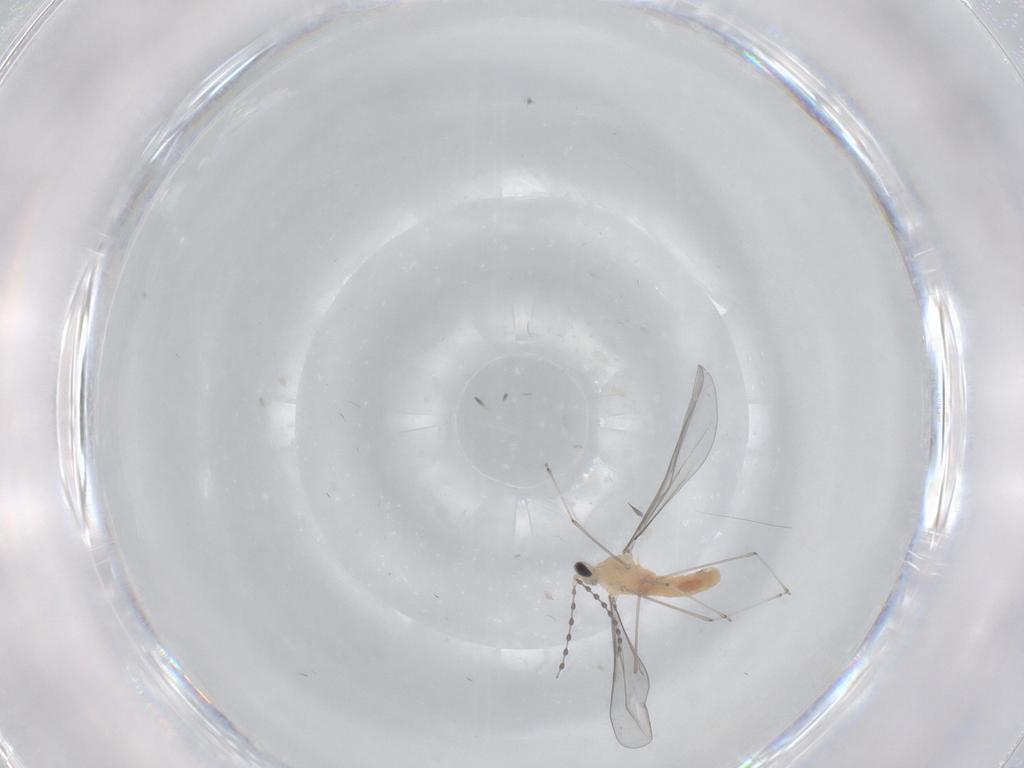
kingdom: Animalia
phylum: Arthropoda
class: Insecta
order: Diptera
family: Cecidomyiidae
